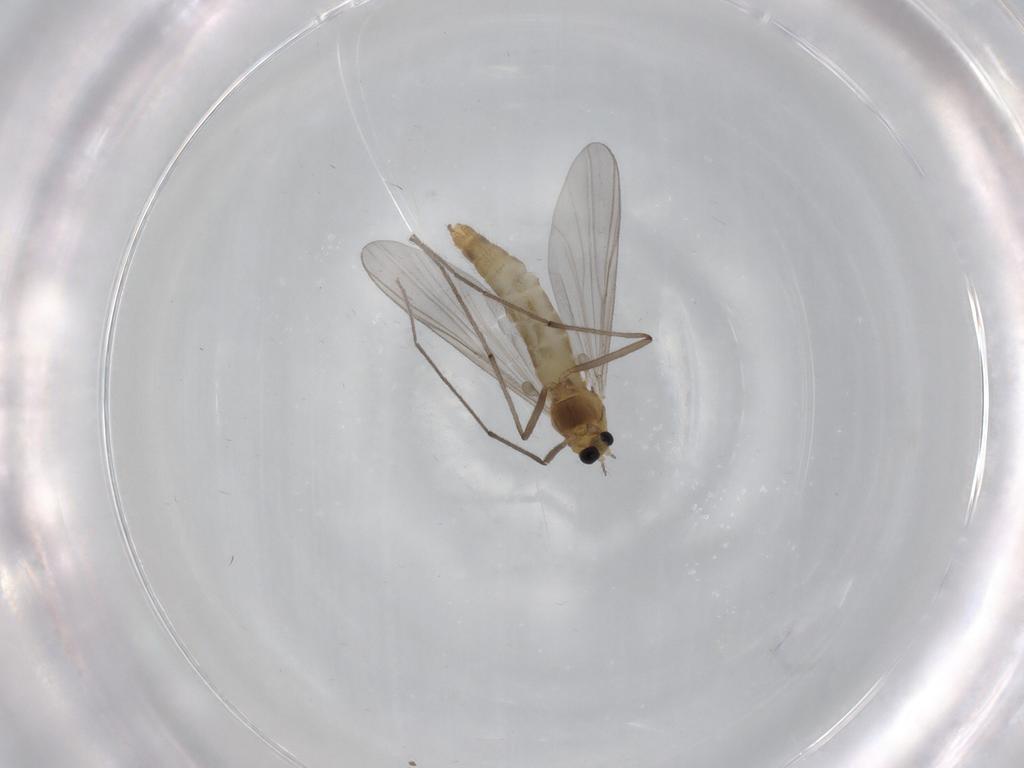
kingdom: Animalia
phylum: Arthropoda
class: Insecta
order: Diptera
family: Chironomidae
